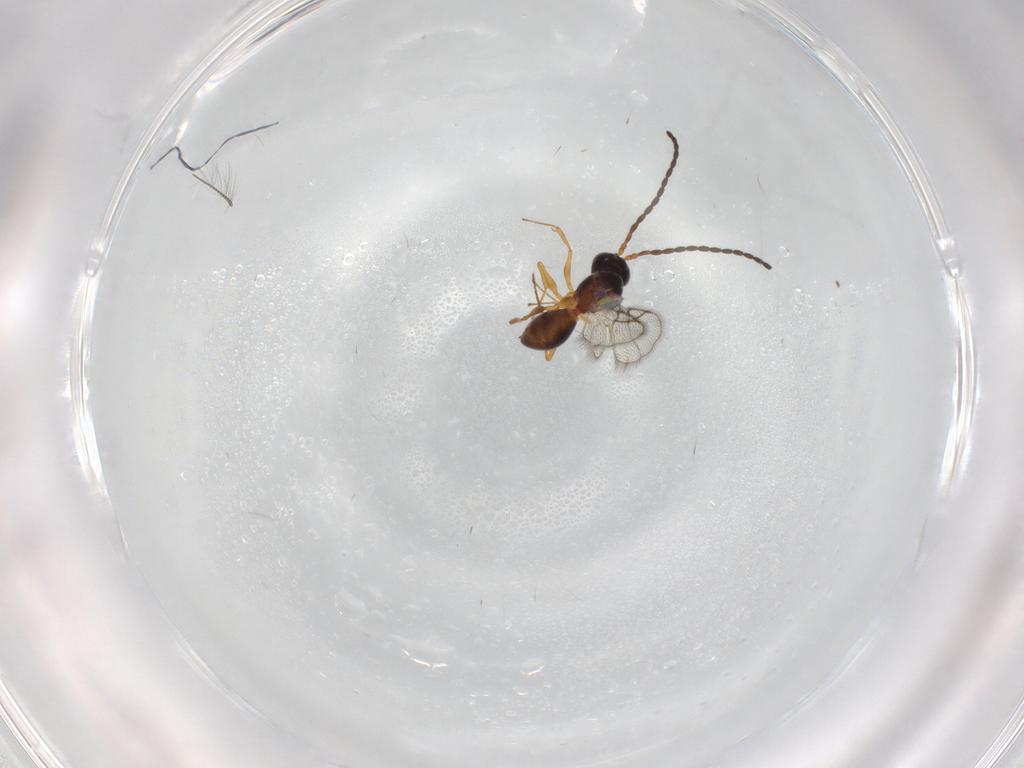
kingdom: Animalia
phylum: Arthropoda
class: Insecta
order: Hymenoptera
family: Figitidae
